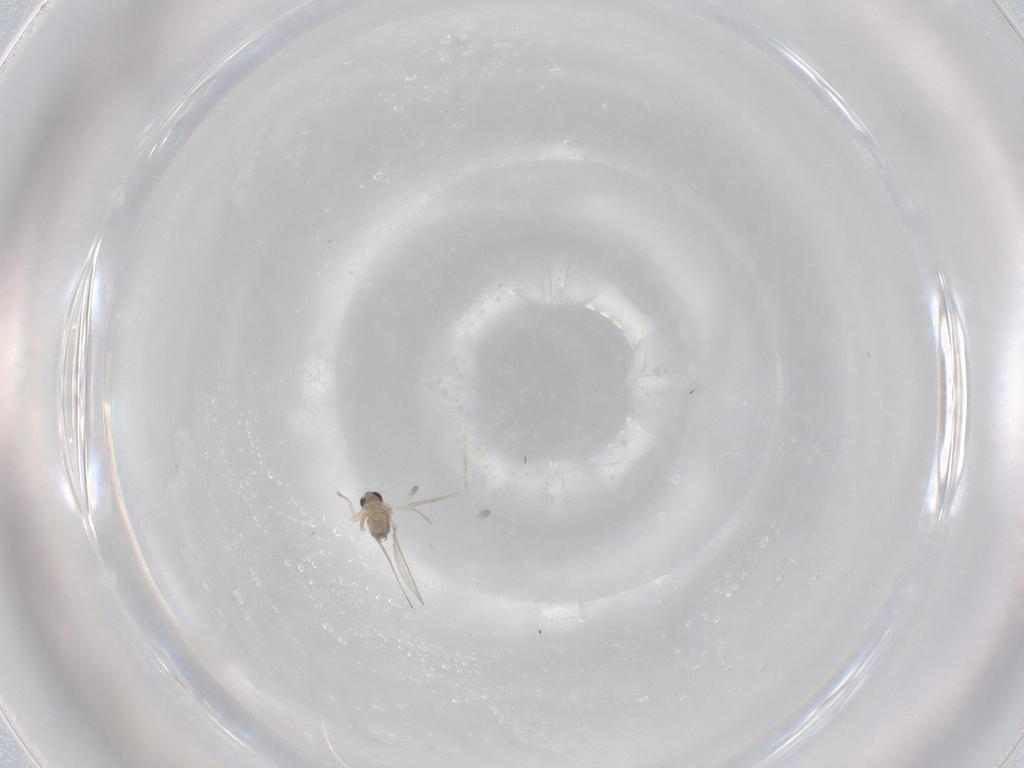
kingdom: Animalia
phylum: Arthropoda
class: Insecta
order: Diptera
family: Cecidomyiidae
